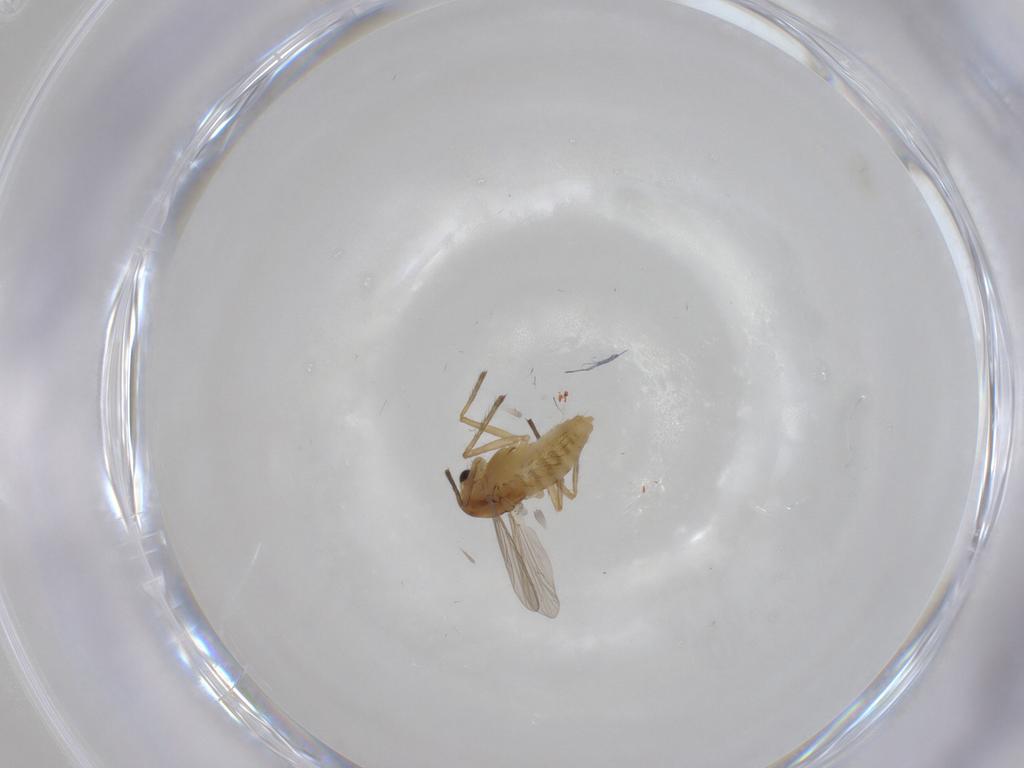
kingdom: Animalia
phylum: Arthropoda
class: Insecta
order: Diptera
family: Chironomidae
